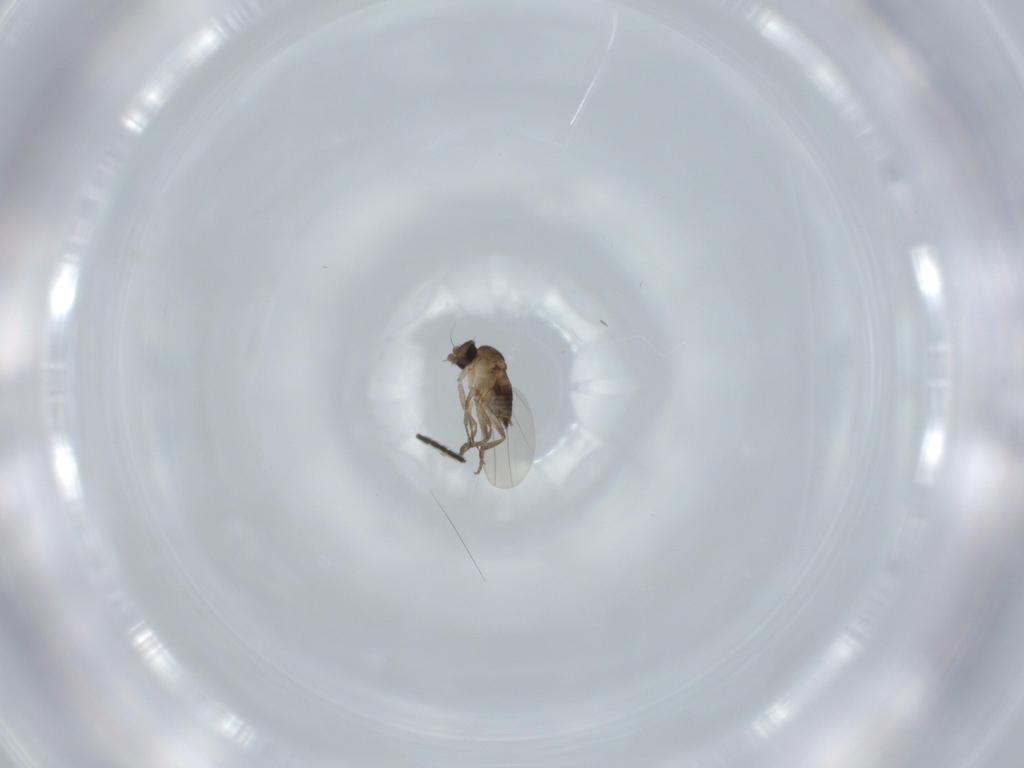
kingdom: Animalia
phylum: Arthropoda
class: Insecta
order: Diptera
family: Phoridae
